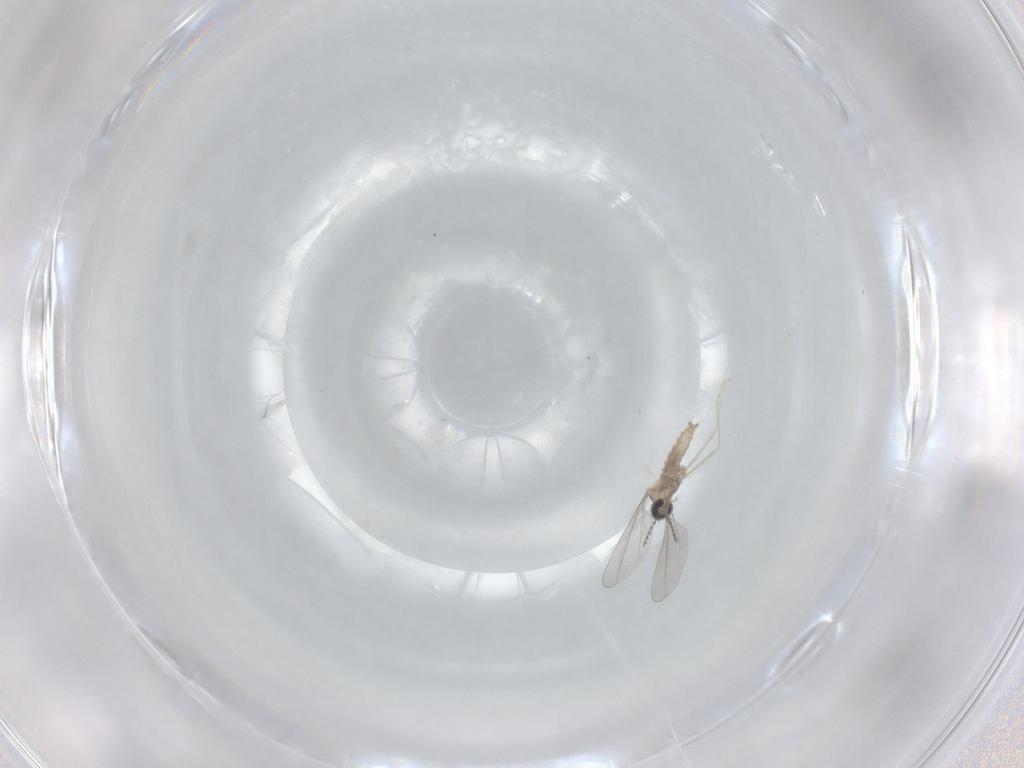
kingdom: Animalia
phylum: Arthropoda
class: Insecta
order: Diptera
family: Cecidomyiidae
